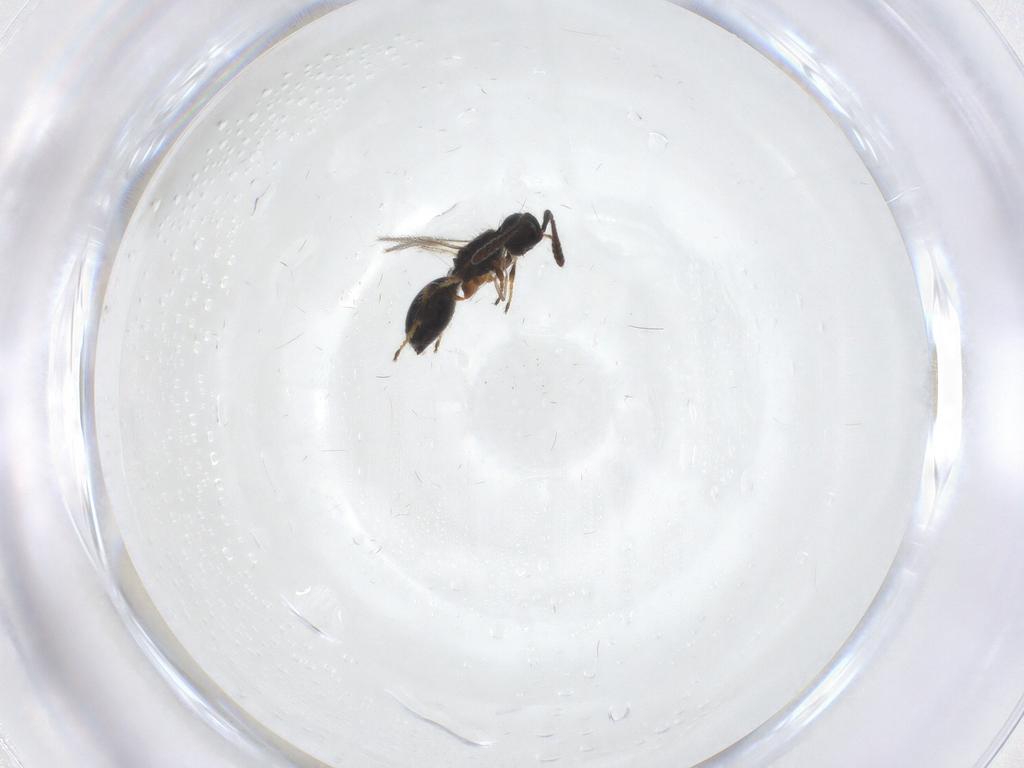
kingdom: Animalia
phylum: Arthropoda
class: Insecta
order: Hymenoptera
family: Diapriidae
